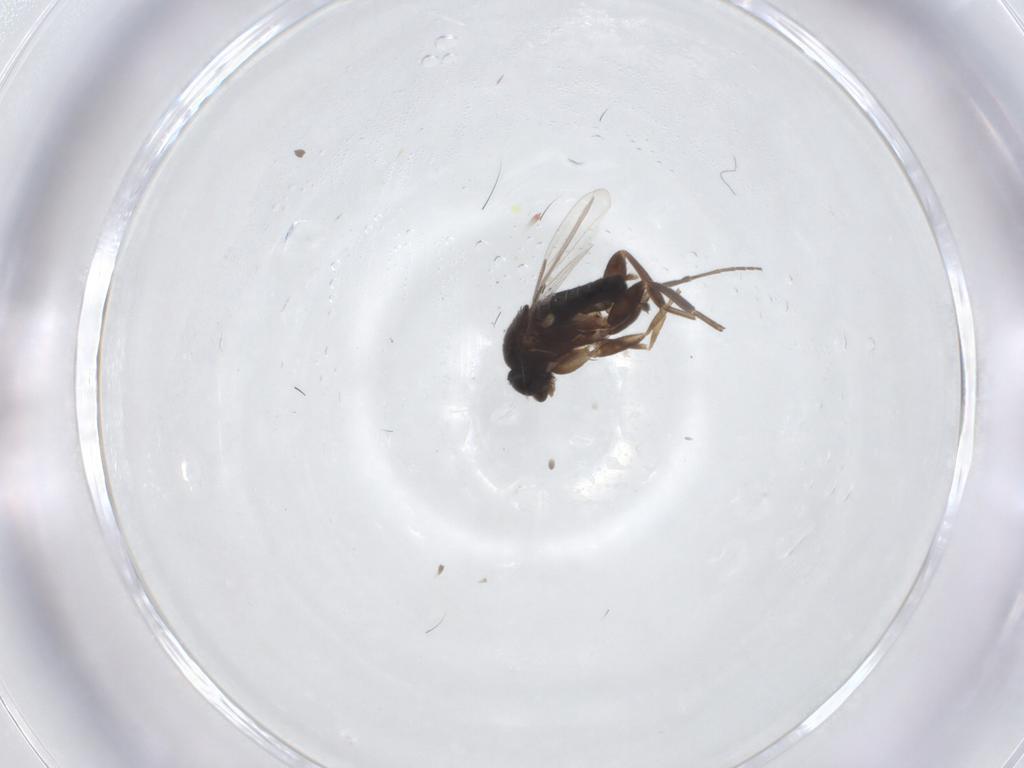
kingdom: Animalia
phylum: Arthropoda
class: Insecta
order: Diptera
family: Phoridae
